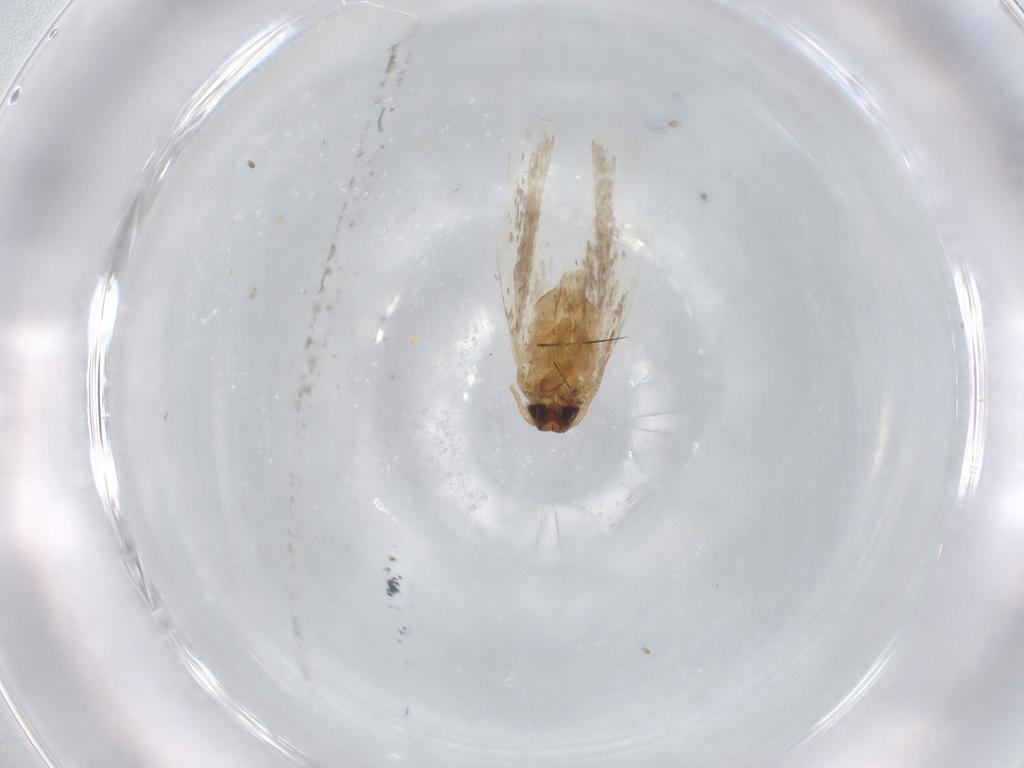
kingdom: Animalia
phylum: Arthropoda
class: Insecta
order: Lepidoptera
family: Gelechiidae
